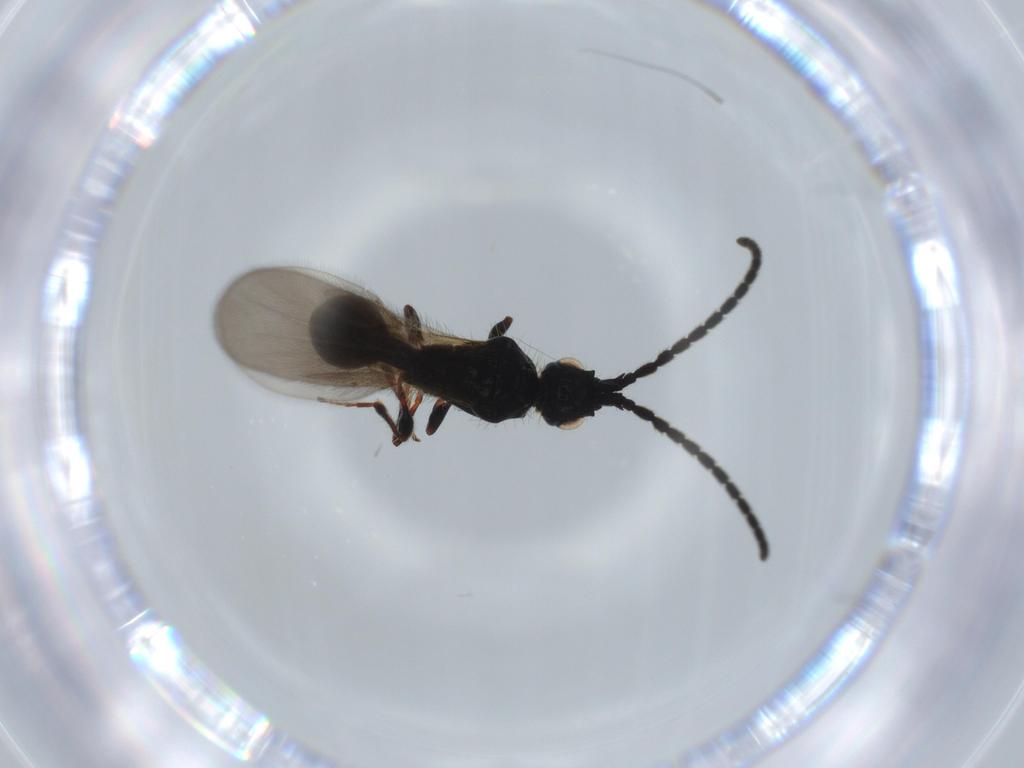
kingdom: Animalia
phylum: Arthropoda
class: Insecta
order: Hymenoptera
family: Diapriidae
